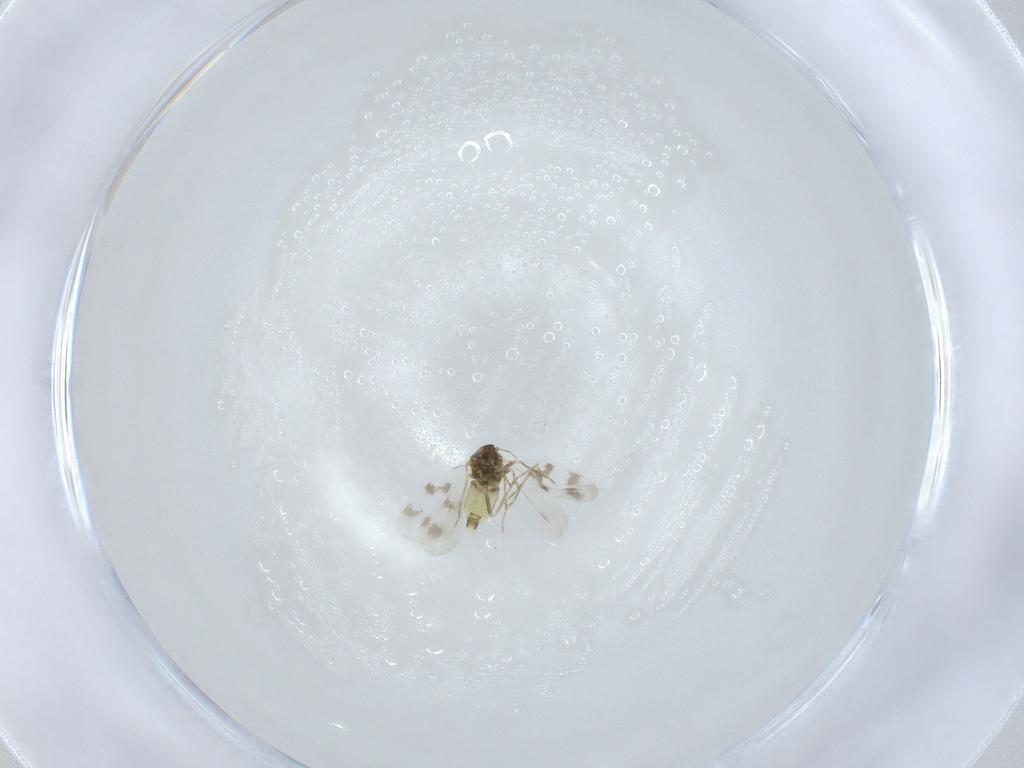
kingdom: Animalia
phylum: Arthropoda
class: Insecta
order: Hemiptera
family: Aleyrodidae
